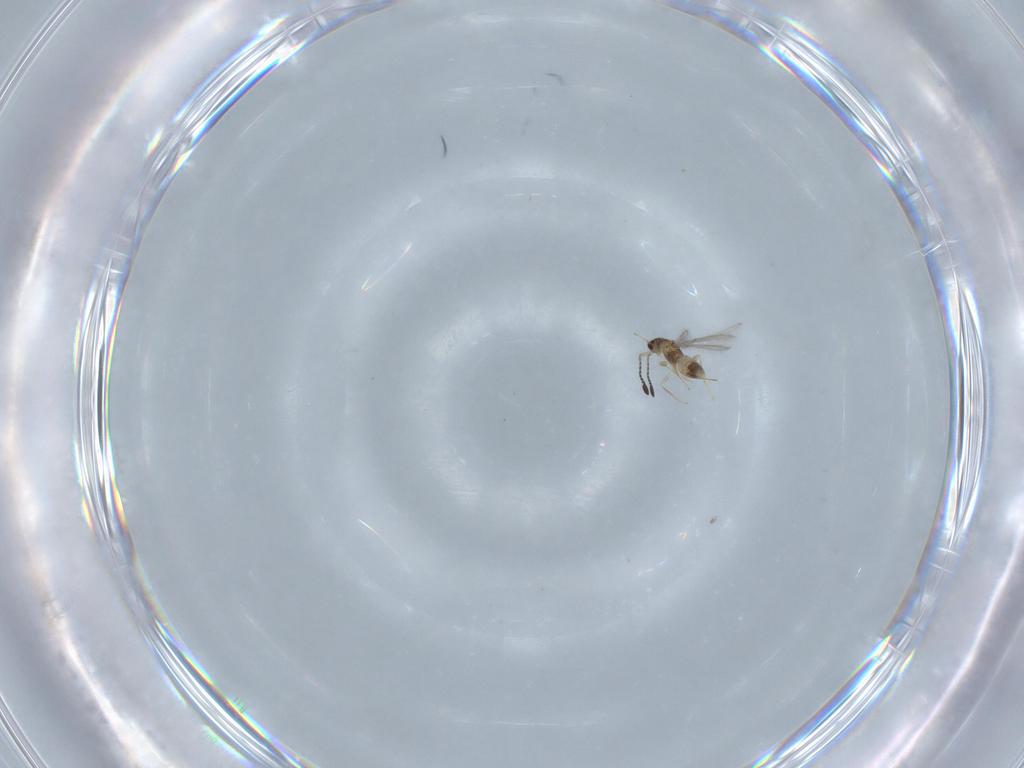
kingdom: Animalia
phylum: Arthropoda
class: Insecta
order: Hymenoptera
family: Mymaridae
